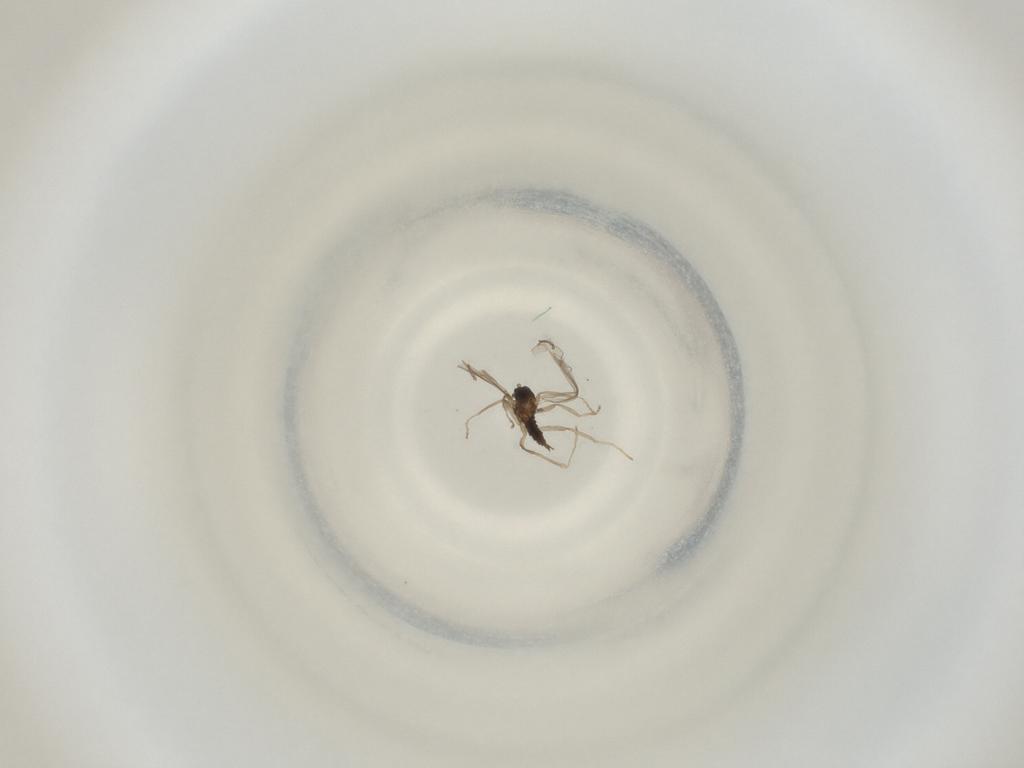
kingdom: Animalia
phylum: Arthropoda
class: Insecta
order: Diptera
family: Cecidomyiidae
